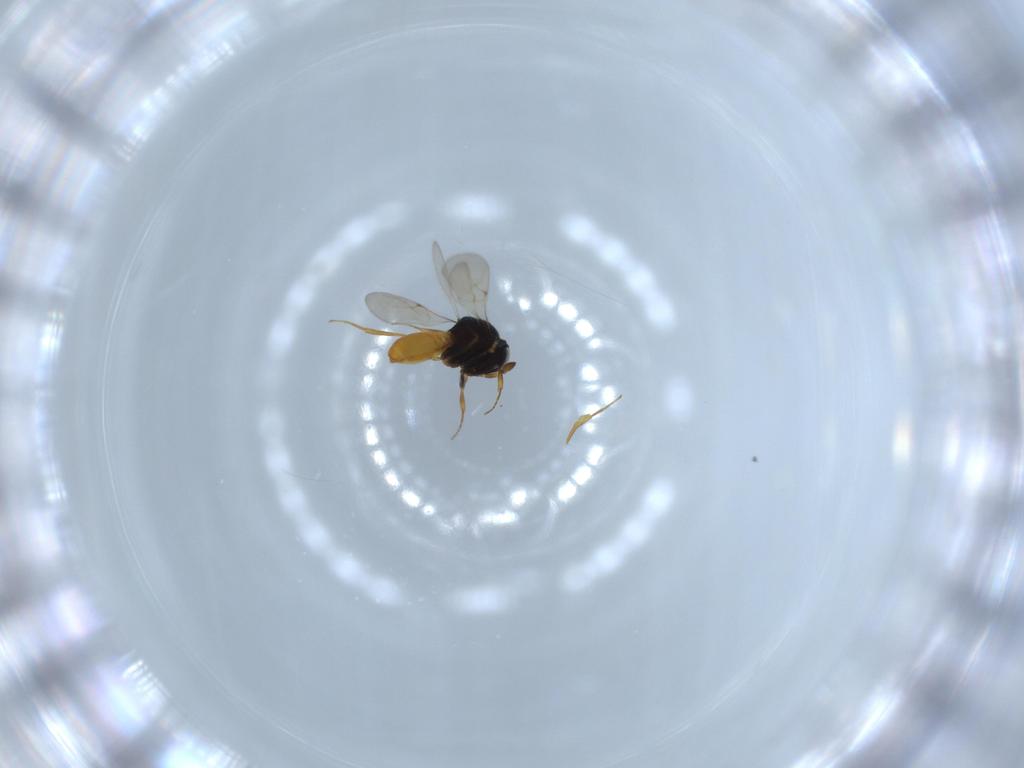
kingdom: Animalia
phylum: Arthropoda
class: Insecta
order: Hymenoptera
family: Scelionidae
